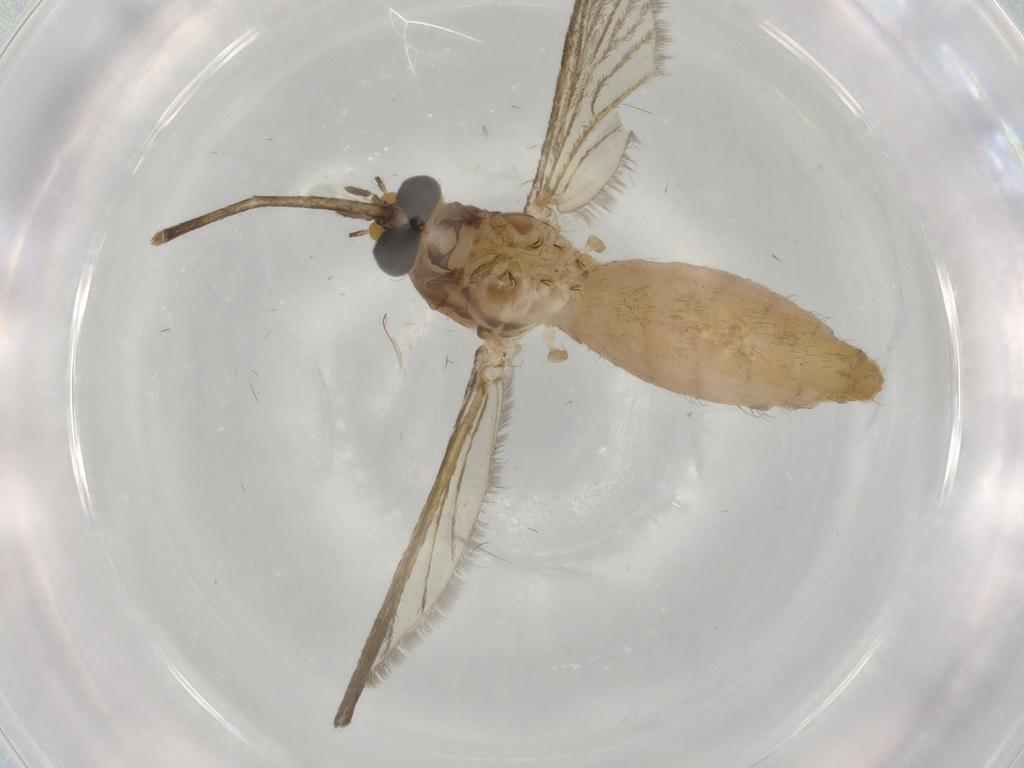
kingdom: Animalia
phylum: Arthropoda
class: Insecta
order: Diptera
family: Culicidae
